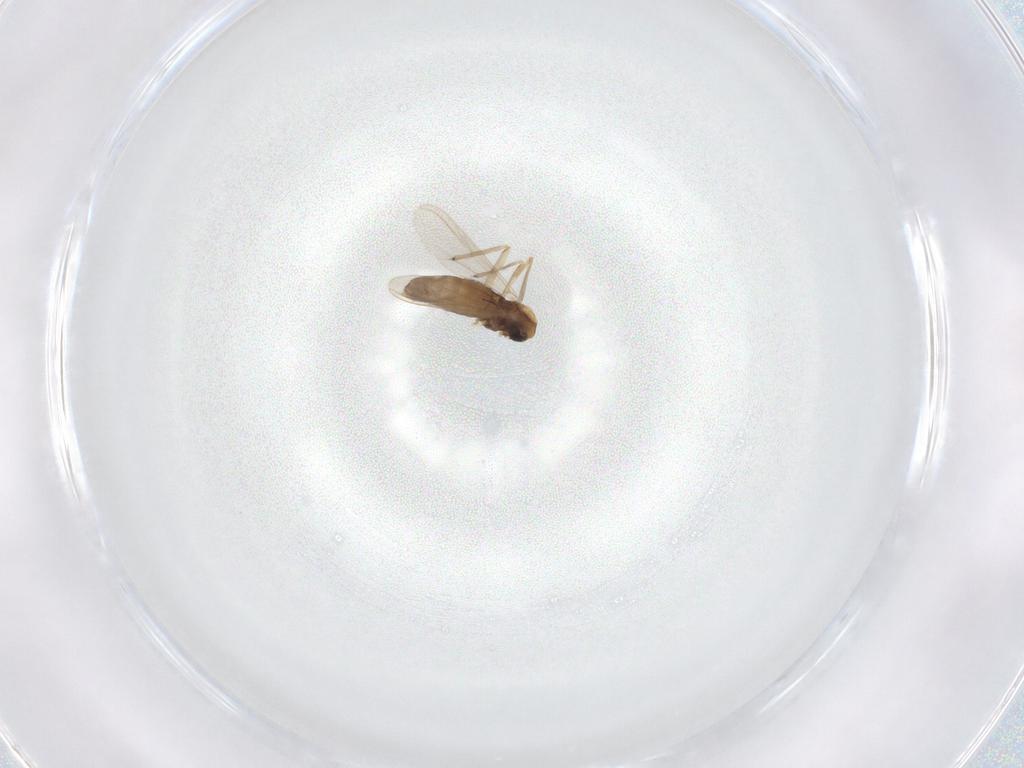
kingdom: Animalia
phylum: Arthropoda
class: Insecta
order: Diptera
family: Chironomidae
